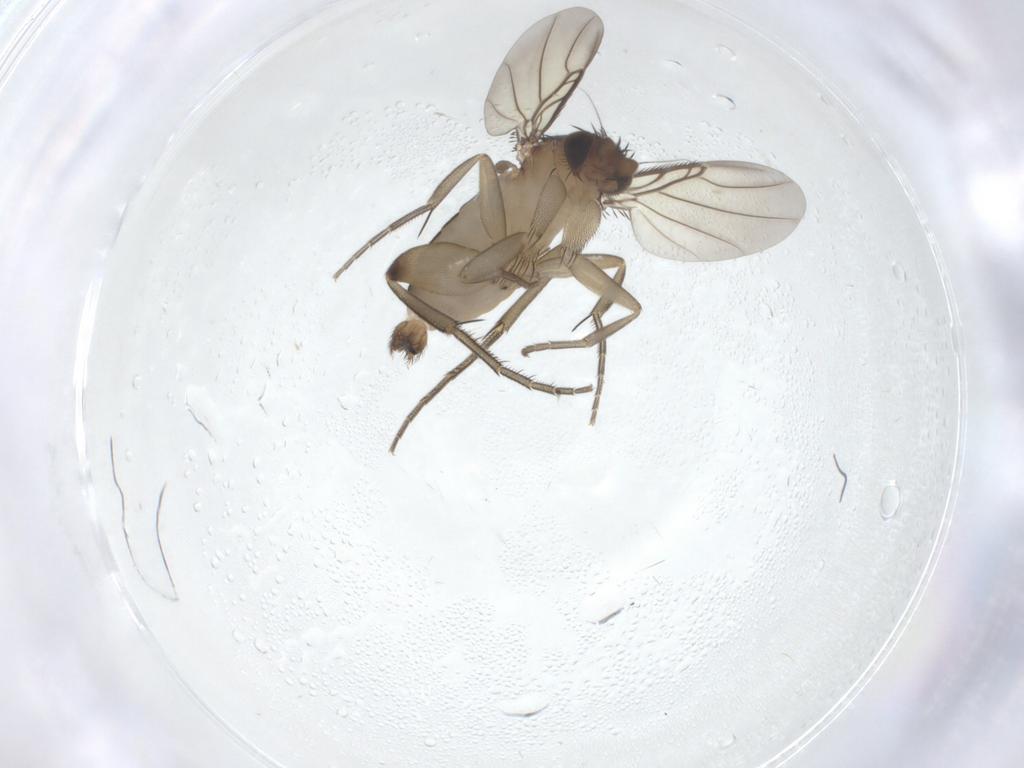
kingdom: Animalia
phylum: Arthropoda
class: Insecta
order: Diptera
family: Phoridae
